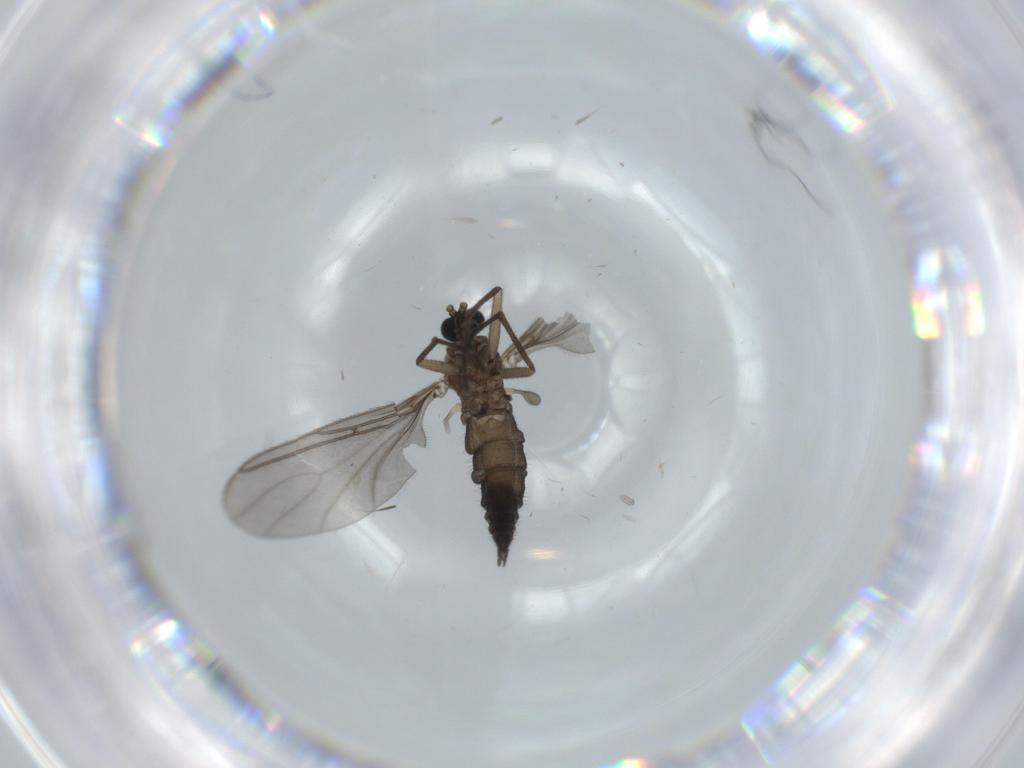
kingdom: Animalia
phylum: Arthropoda
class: Insecta
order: Diptera
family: Sciaridae
